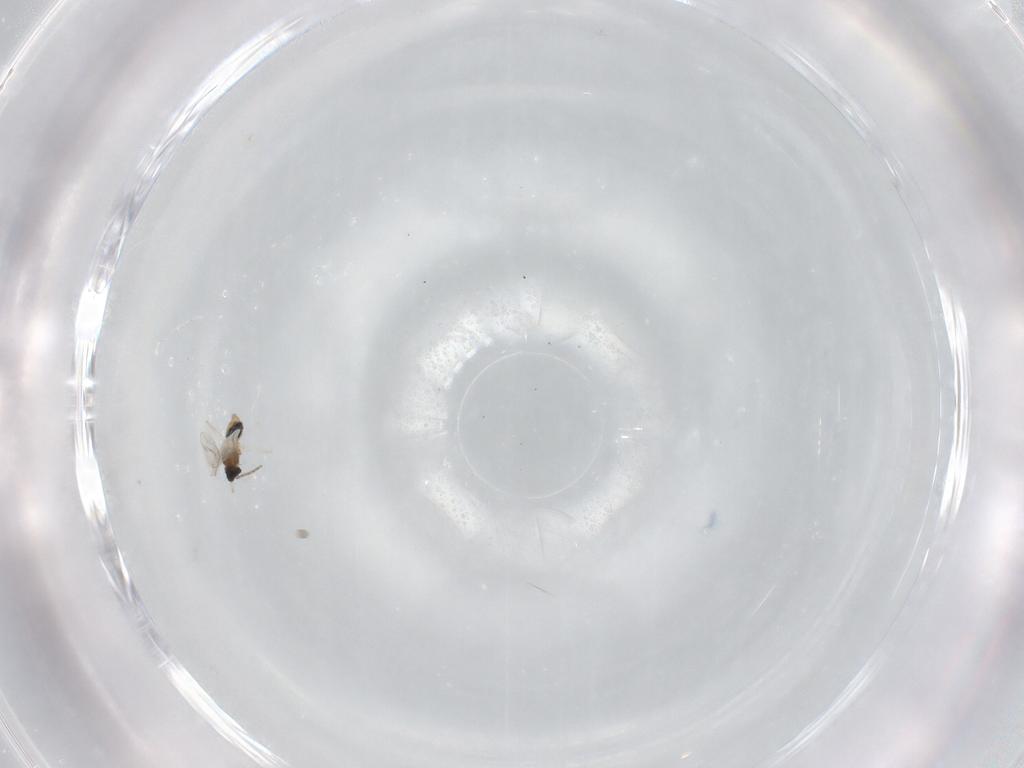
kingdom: Animalia
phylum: Arthropoda
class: Insecta
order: Diptera
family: Cecidomyiidae
